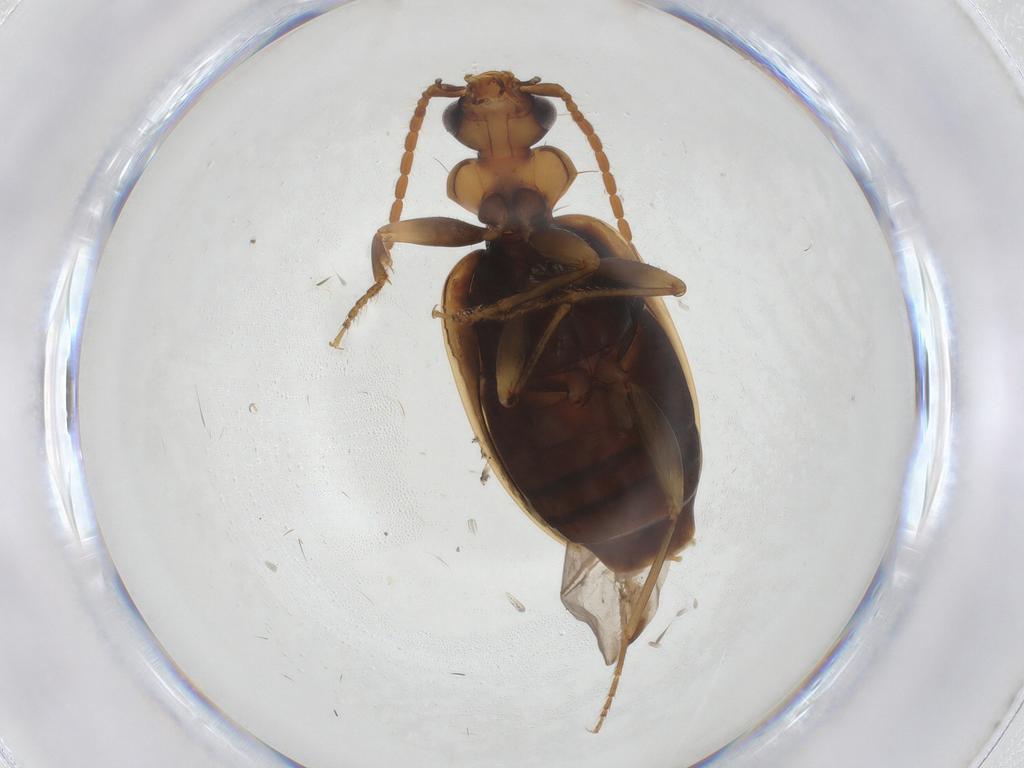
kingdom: Animalia
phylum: Arthropoda
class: Insecta
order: Coleoptera
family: Carabidae
